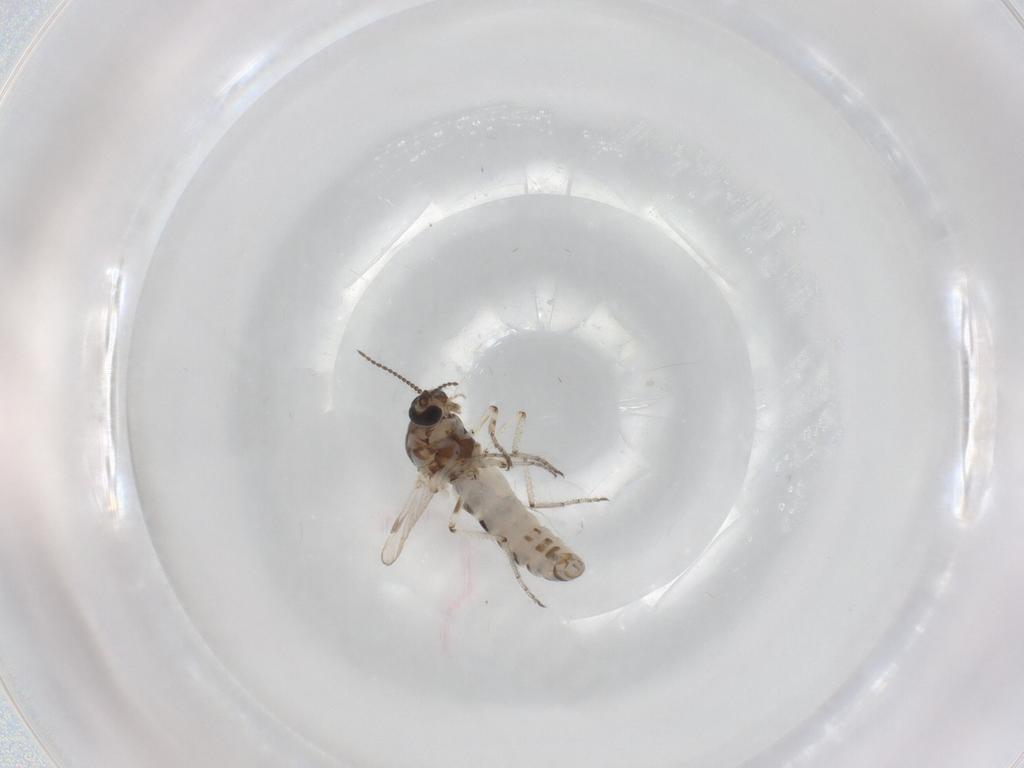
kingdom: Animalia
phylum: Arthropoda
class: Insecta
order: Diptera
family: Ceratopogonidae
